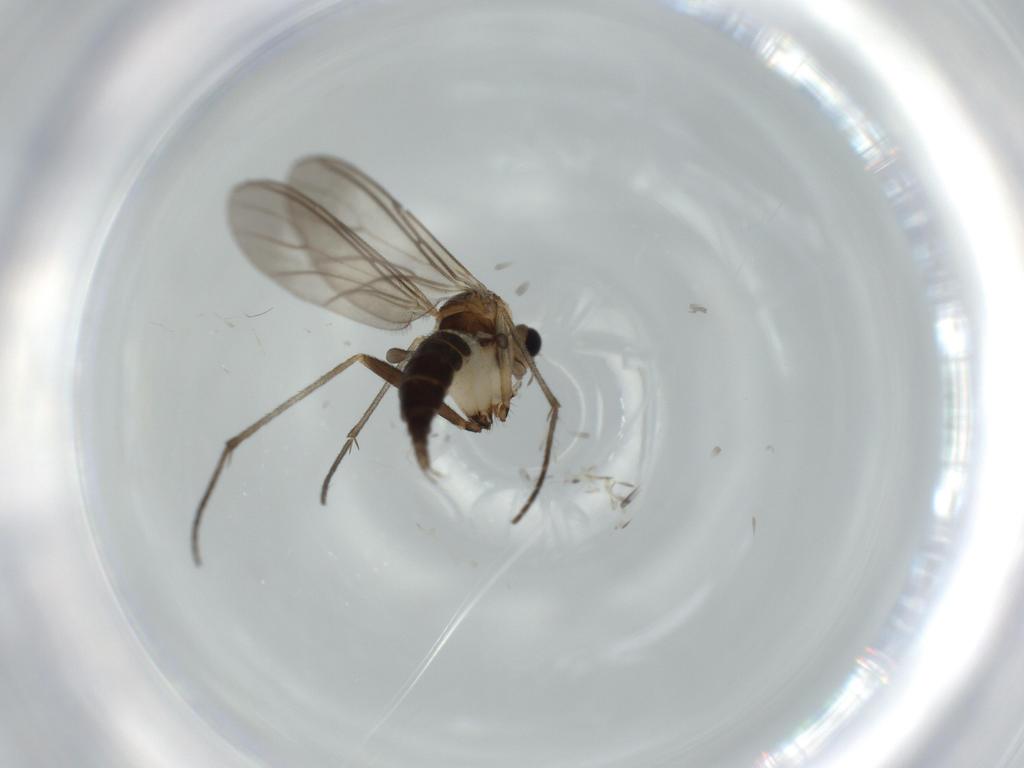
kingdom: Animalia
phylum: Arthropoda
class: Insecta
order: Diptera
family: Sciaridae
